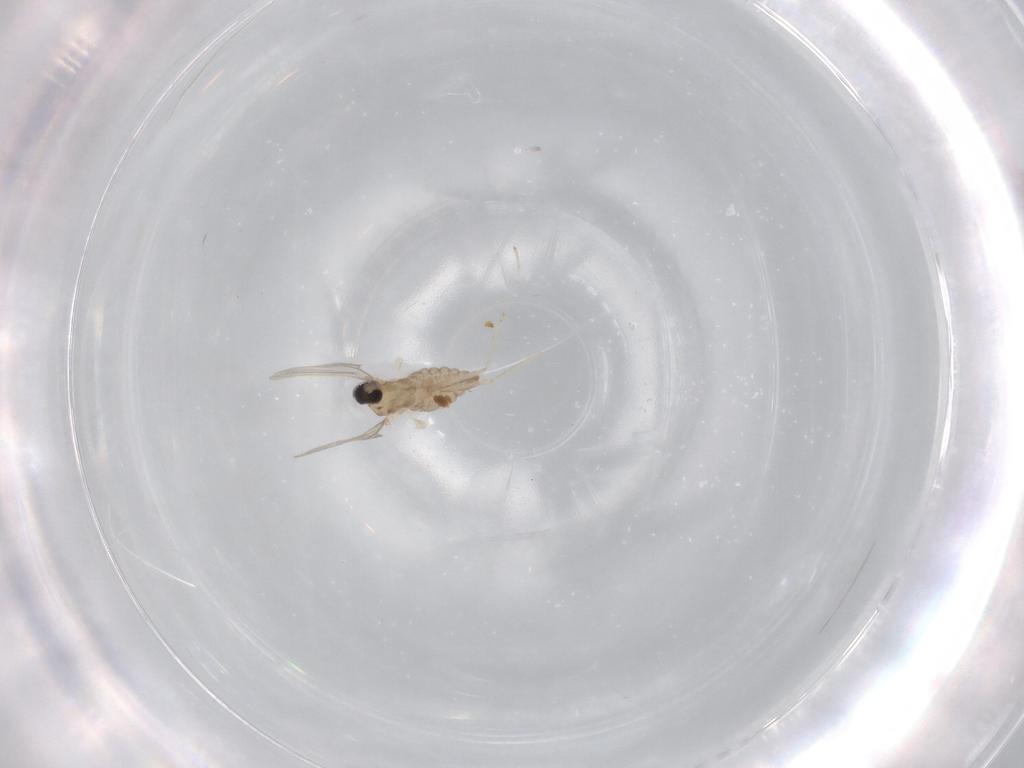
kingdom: Animalia
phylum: Arthropoda
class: Insecta
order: Diptera
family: Cecidomyiidae
